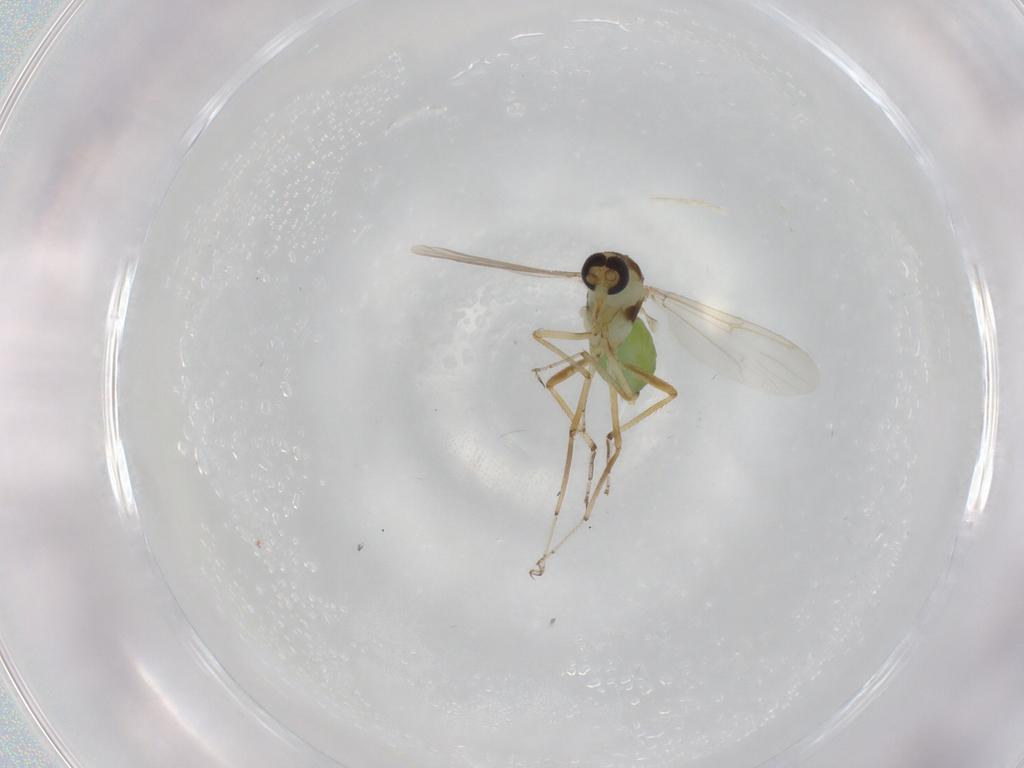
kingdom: Animalia
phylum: Arthropoda
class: Insecta
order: Diptera
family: Ceratopogonidae
